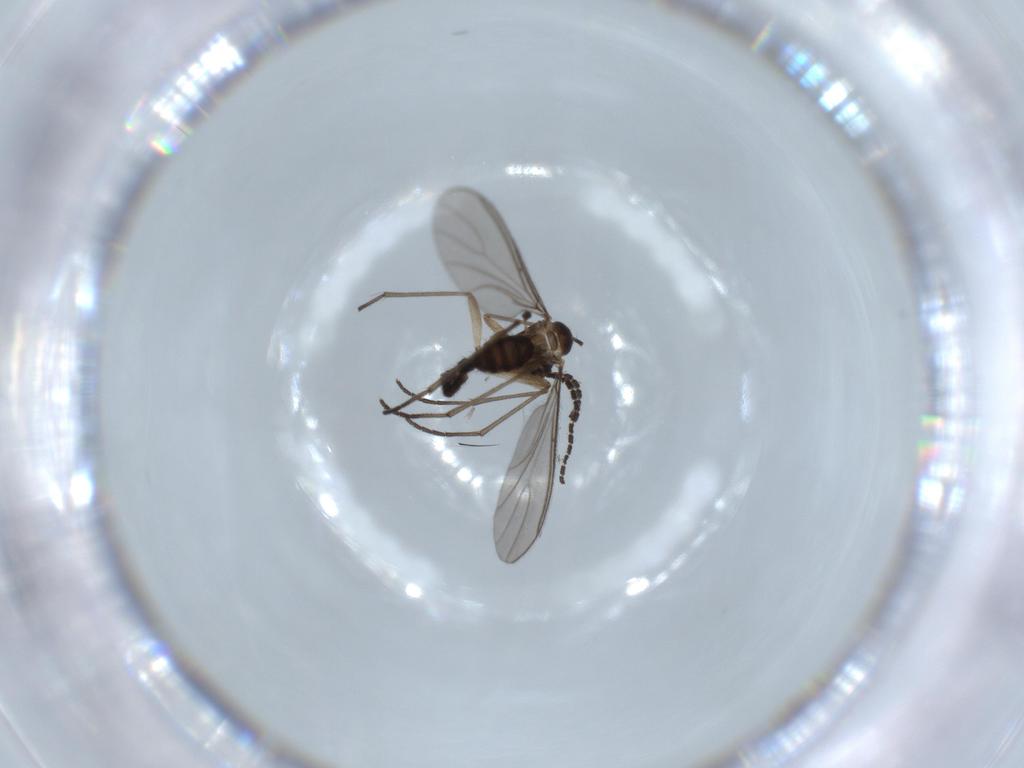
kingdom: Animalia
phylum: Arthropoda
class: Insecta
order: Diptera
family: Sciaridae
